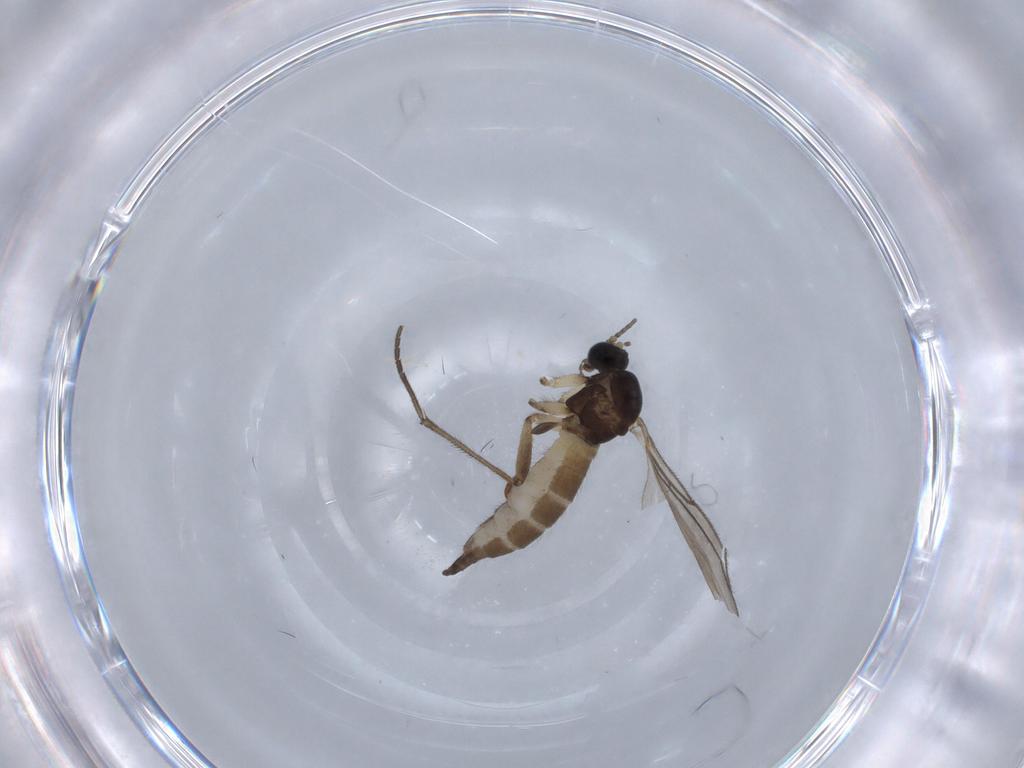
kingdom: Animalia
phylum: Arthropoda
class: Insecta
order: Diptera
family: Sciaridae
